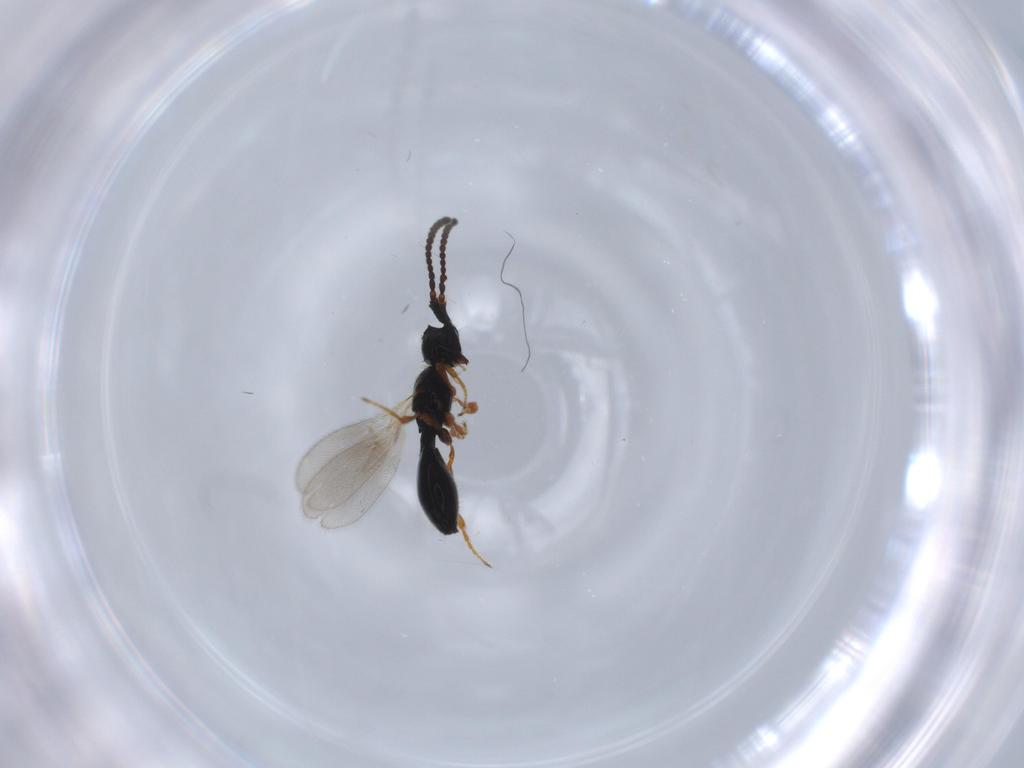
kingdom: Animalia
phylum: Arthropoda
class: Insecta
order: Hymenoptera
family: Diapriidae
